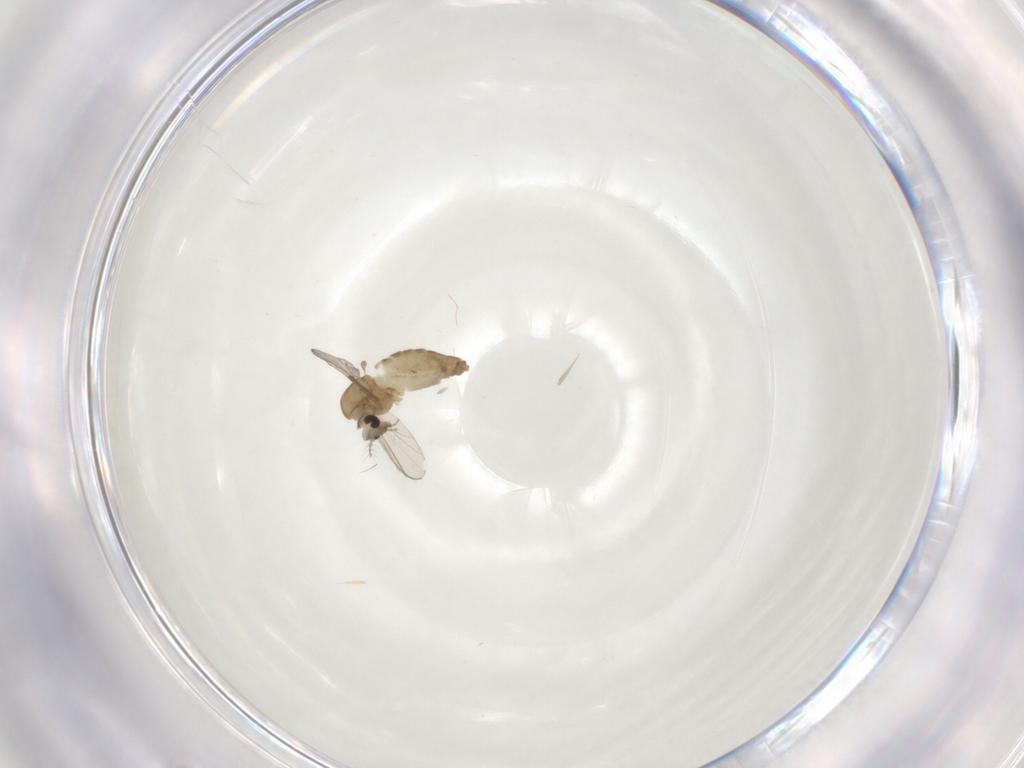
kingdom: Animalia
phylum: Arthropoda
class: Insecta
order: Diptera
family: Chironomidae
